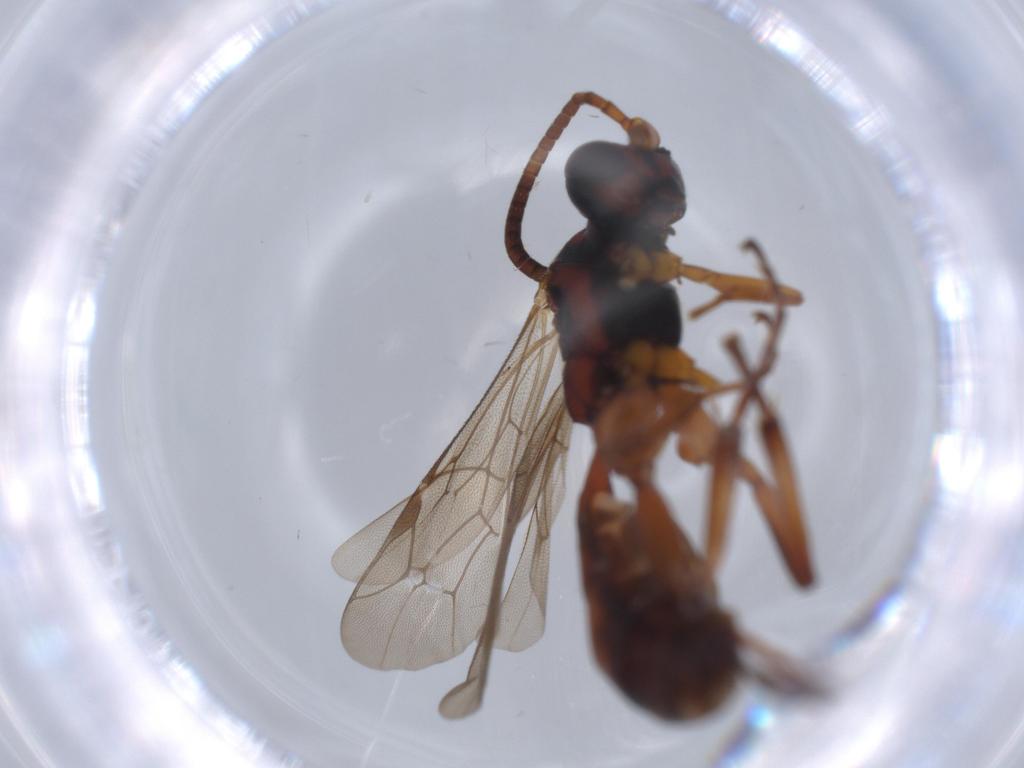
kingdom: Animalia
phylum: Arthropoda
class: Insecta
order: Hymenoptera
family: Ichneumonidae
